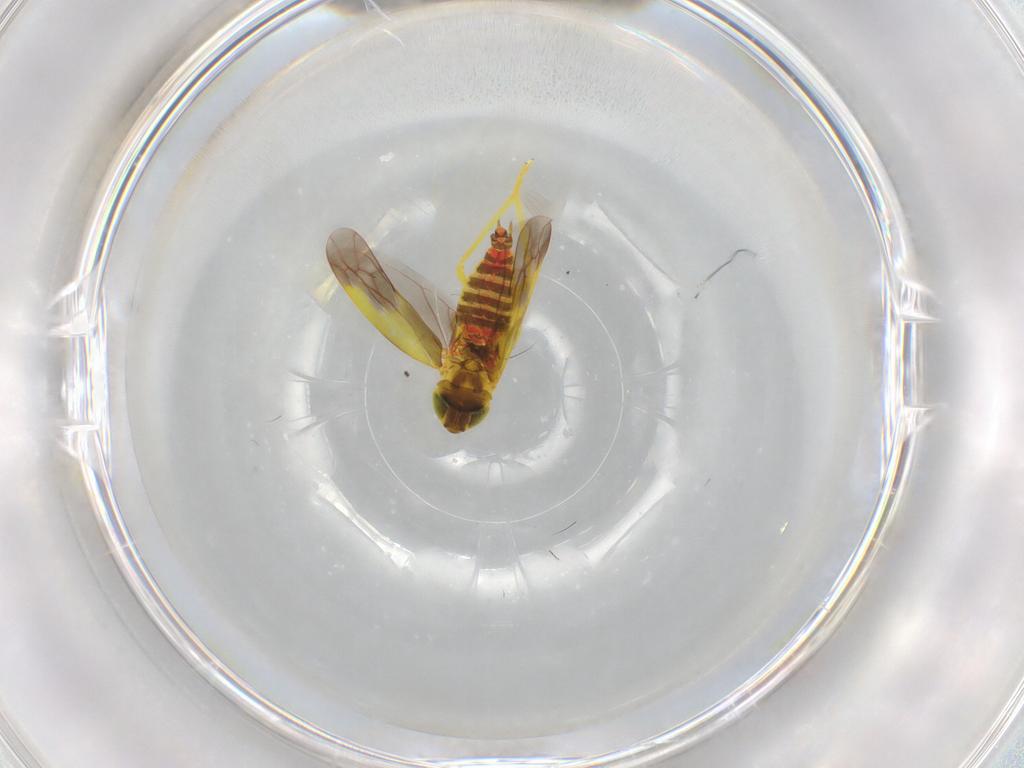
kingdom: Animalia
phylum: Arthropoda
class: Insecta
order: Hemiptera
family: Cicadellidae
